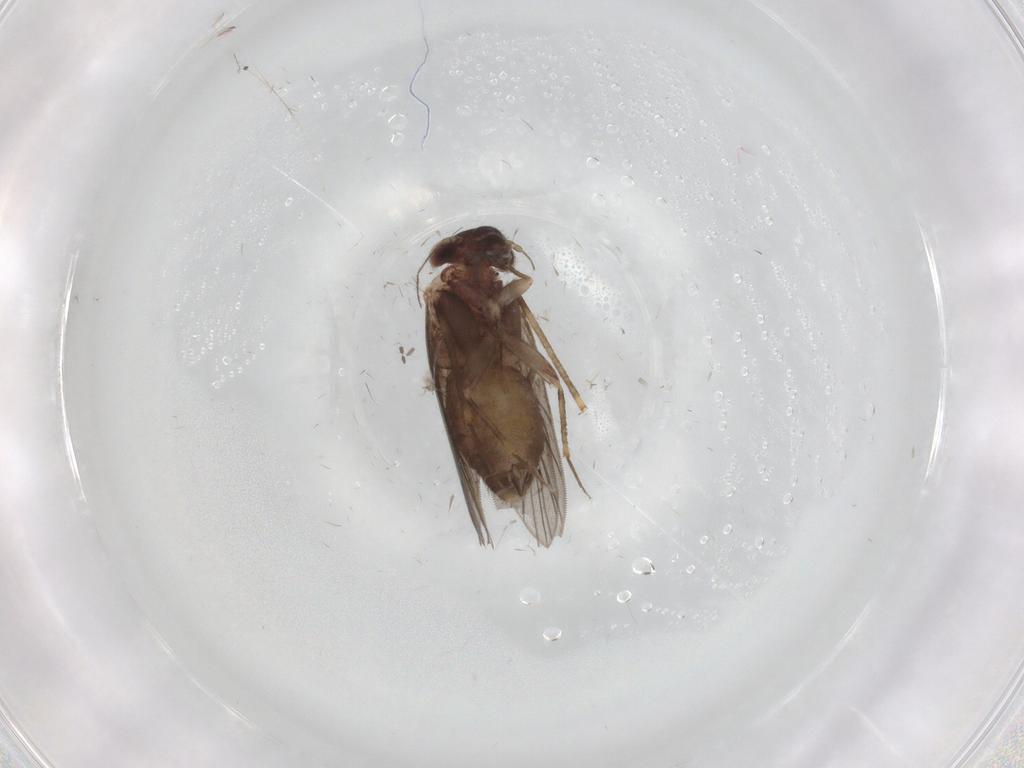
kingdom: Animalia
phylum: Arthropoda
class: Insecta
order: Psocodea
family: Lepidopsocidae
